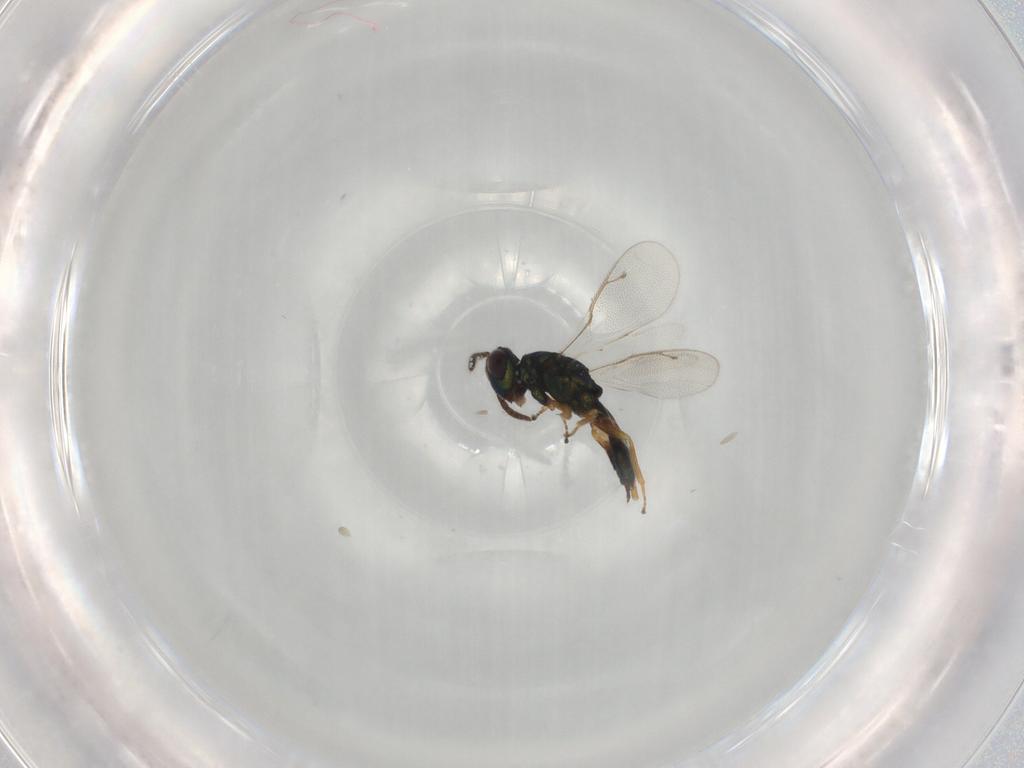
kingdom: Animalia
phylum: Arthropoda
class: Insecta
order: Hymenoptera
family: Pteromalidae
